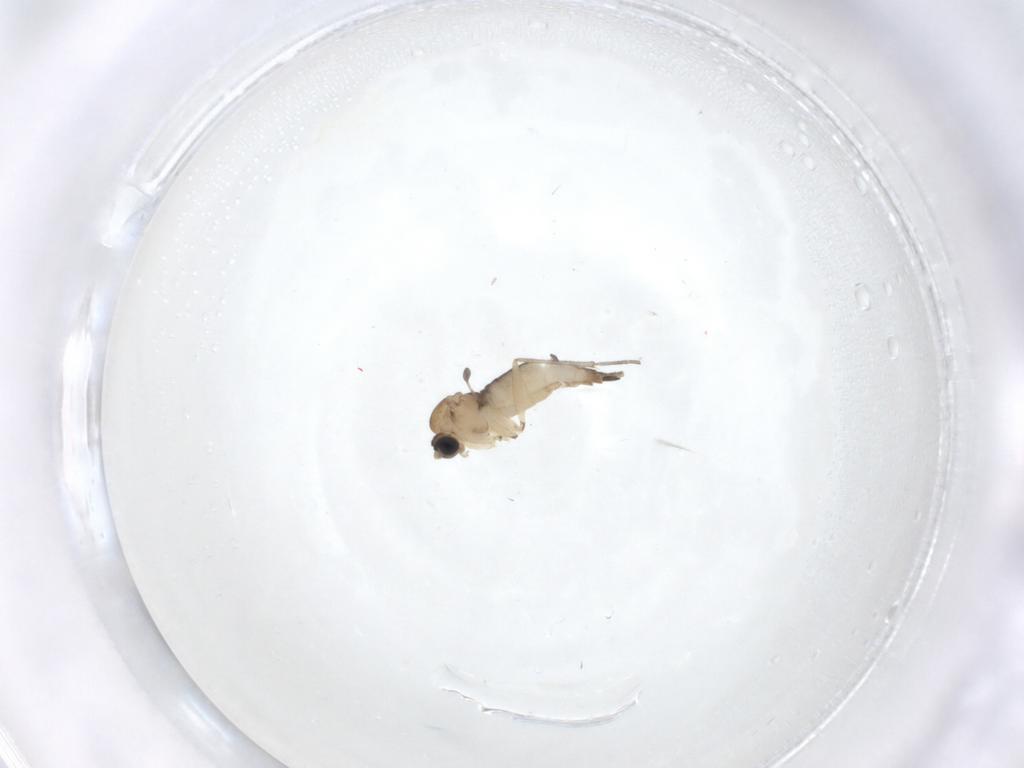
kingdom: Animalia
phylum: Arthropoda
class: Insecta
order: Diptera
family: Sciaridae
